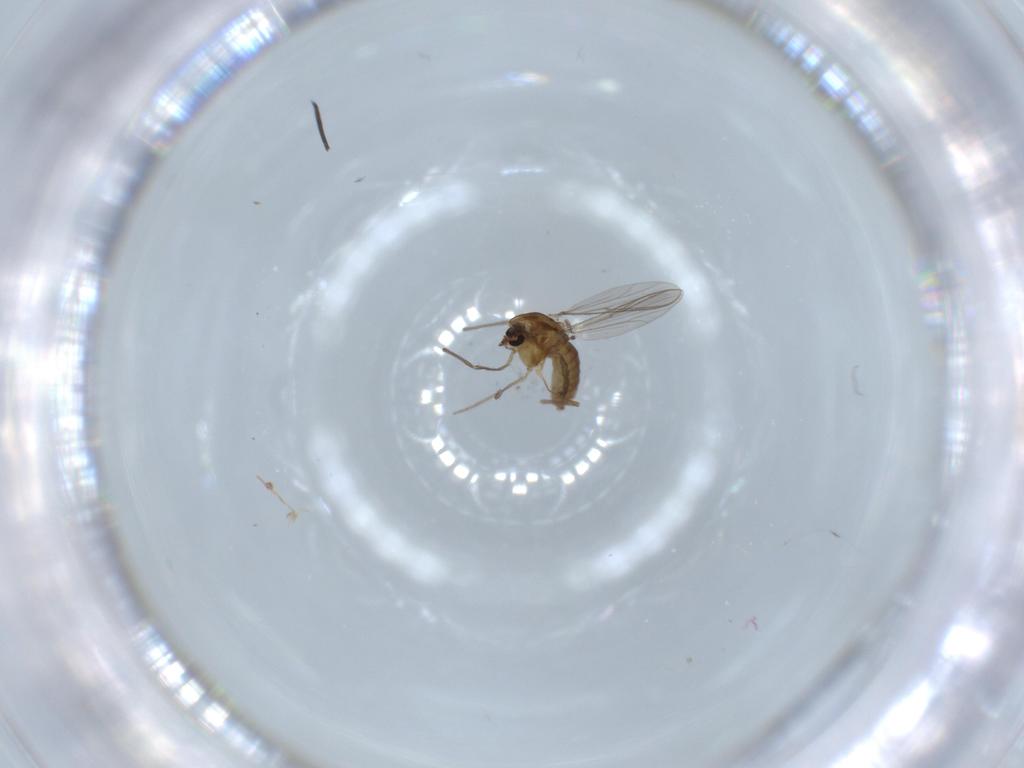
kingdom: Animalia
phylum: Arthropoda
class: Insecta
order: Diptera
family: Chironomidae
